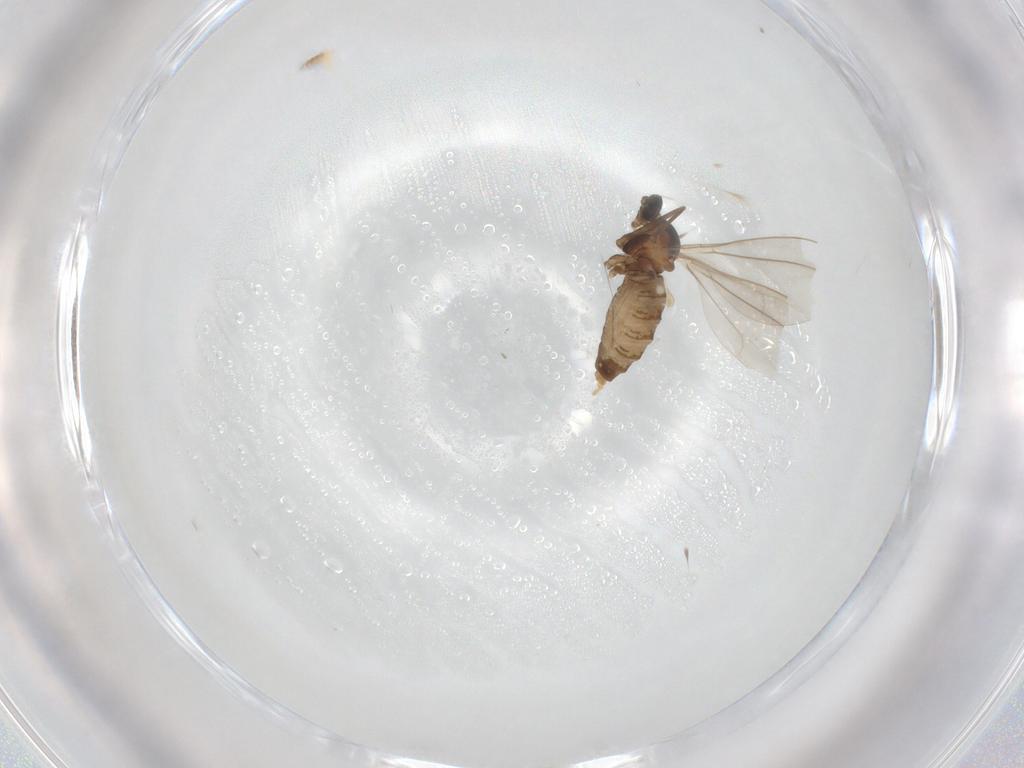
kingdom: Animalia
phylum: Arthropoda
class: Insecta
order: Diptera
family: Cecidomyiidae
